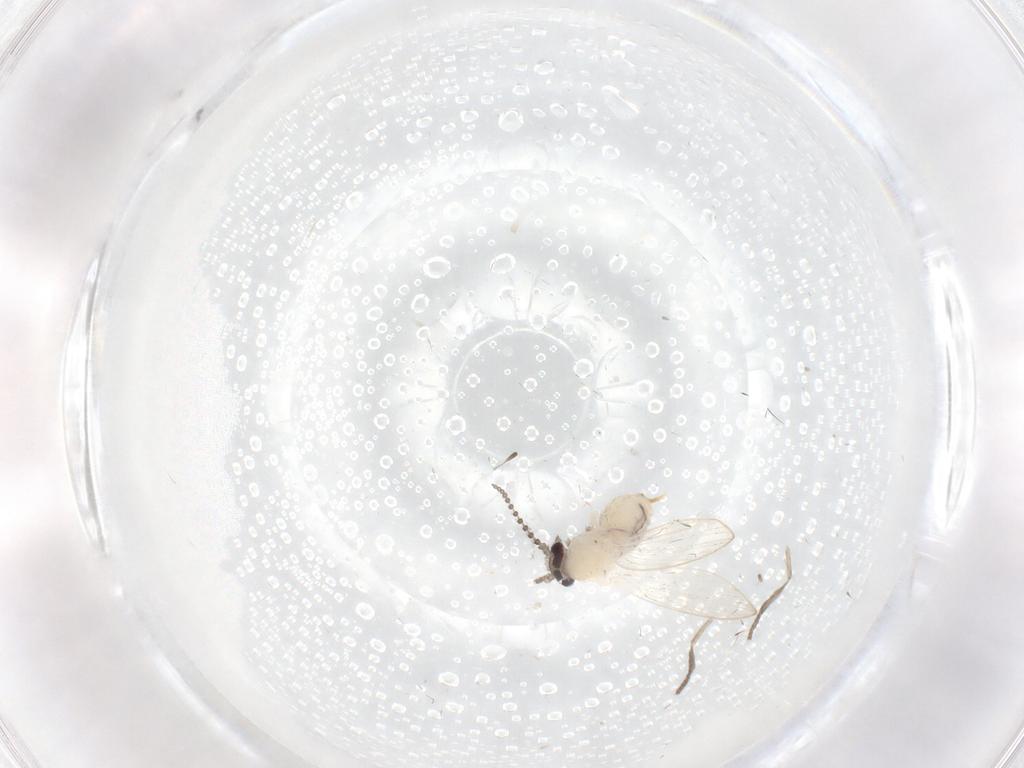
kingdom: Animalia
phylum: Arthropoda
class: Insecta
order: Diptera
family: Psychodidae
